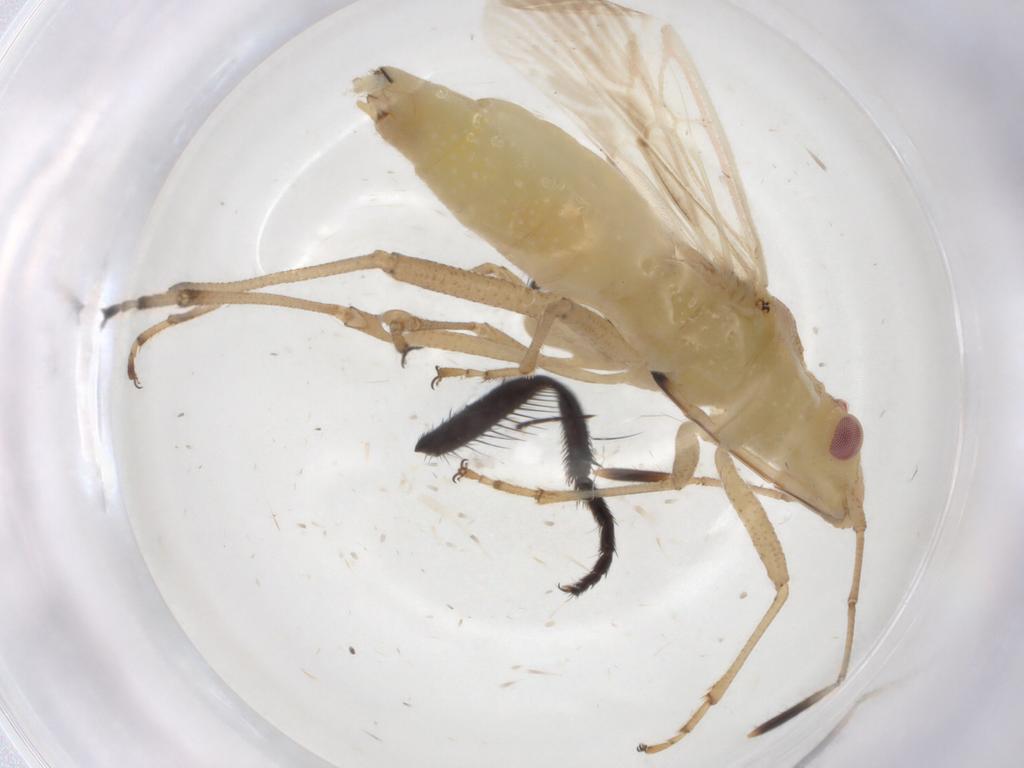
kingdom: Animalia
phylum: Arthropoda
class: Insecta
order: Hemiptera
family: Rhopalidae
